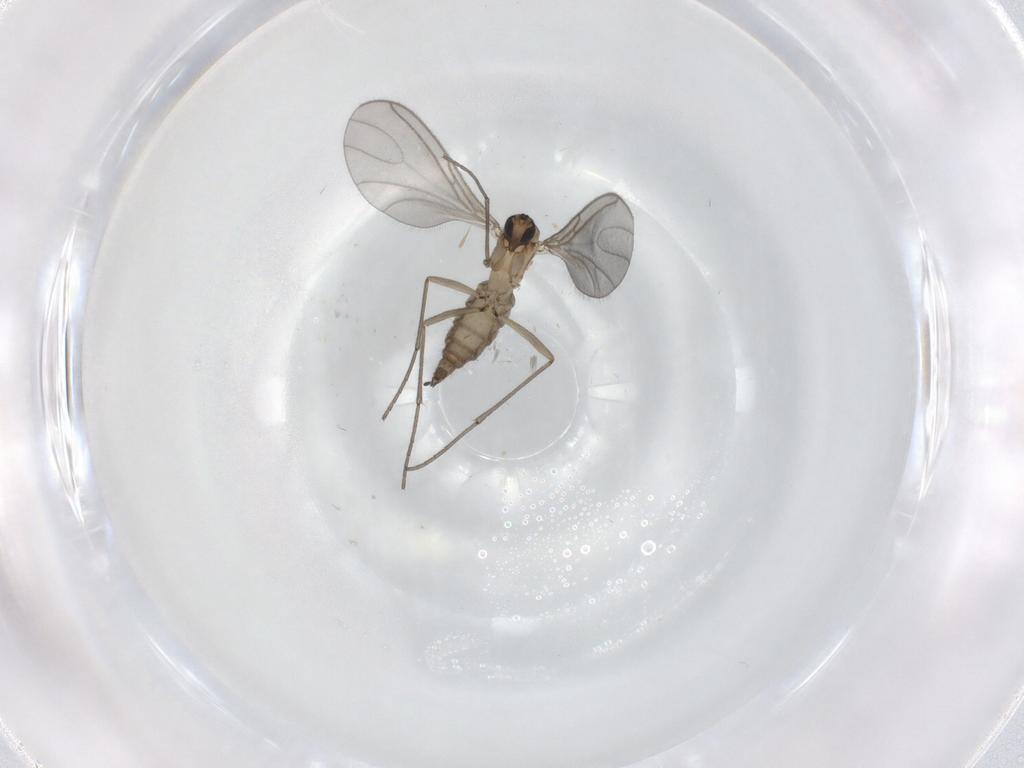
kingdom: Animalia
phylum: Arthropoda
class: Insecta
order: Diptera
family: Sciaridae
